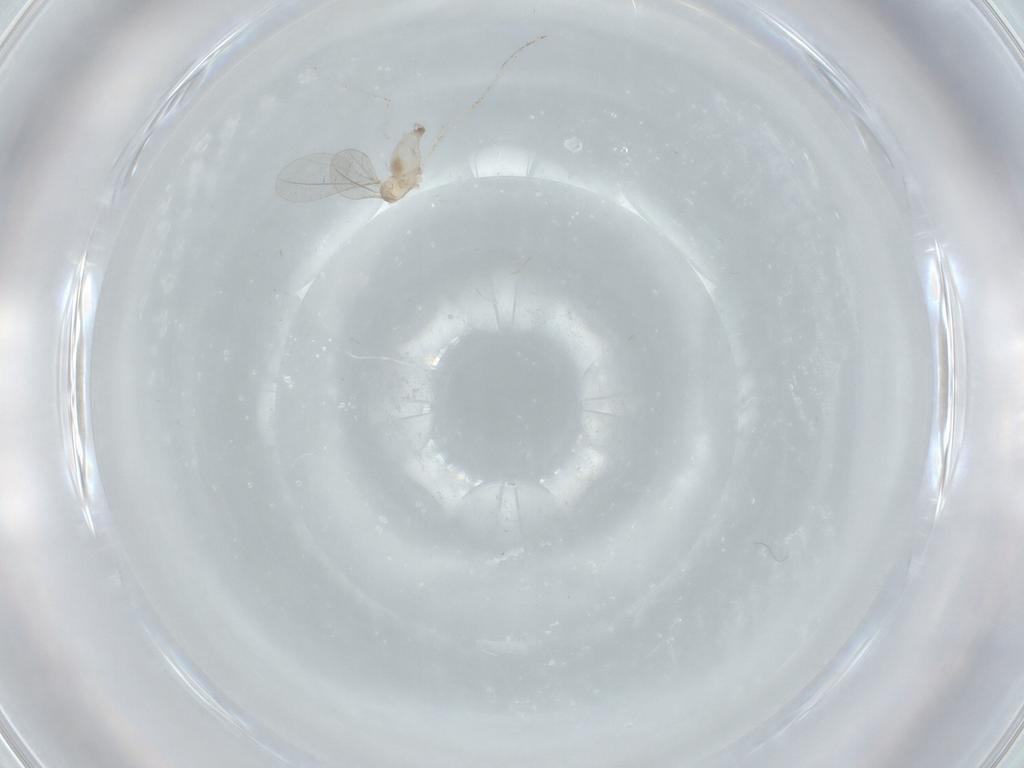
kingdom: Animalia
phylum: Arthropoda
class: Insecta
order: Diptera
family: Cecidomyiidae
